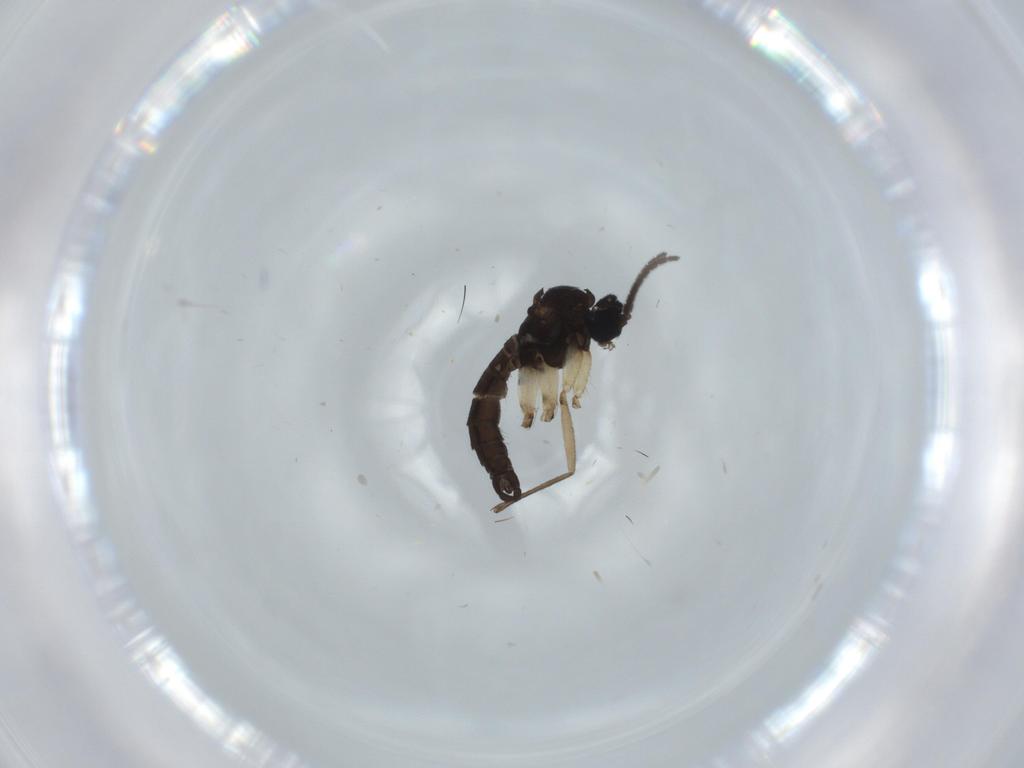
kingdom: Animalia
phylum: Arthropoda
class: Insecta
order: Diptera
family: Sciaridae
